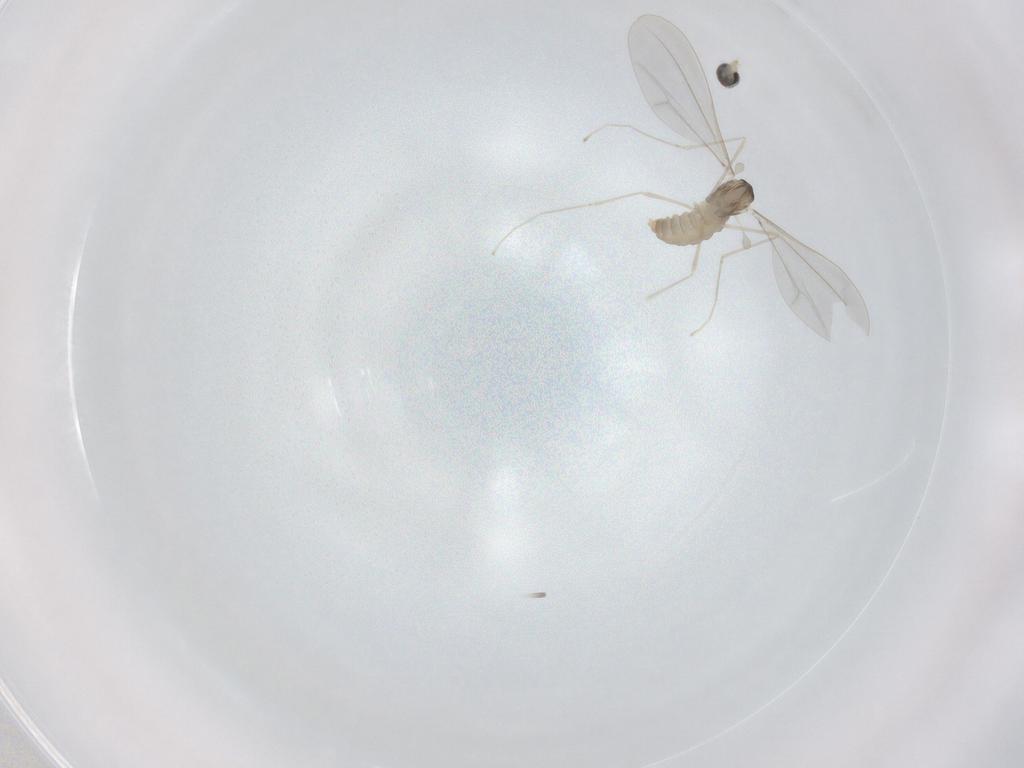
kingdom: Animalia
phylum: Arthropoda
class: Insecta
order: Diptera
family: Cecidomyiidae
